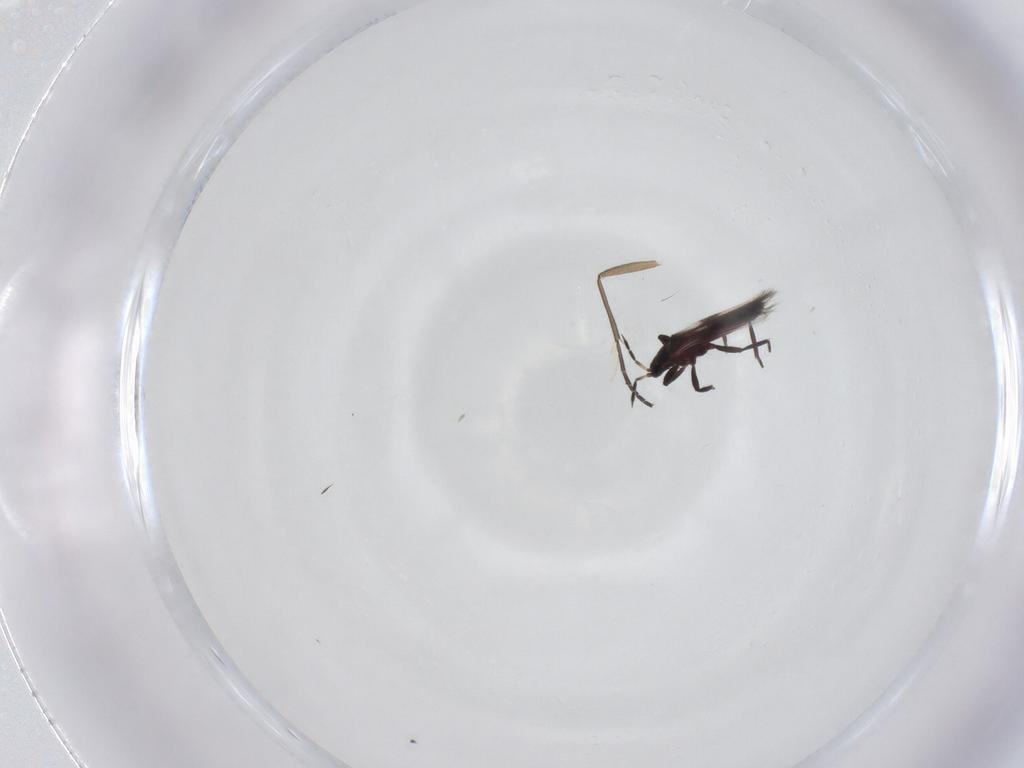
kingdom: Animalia
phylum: Arthropoda
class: Insecta
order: Thysanoptera
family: Aeolothripidae
